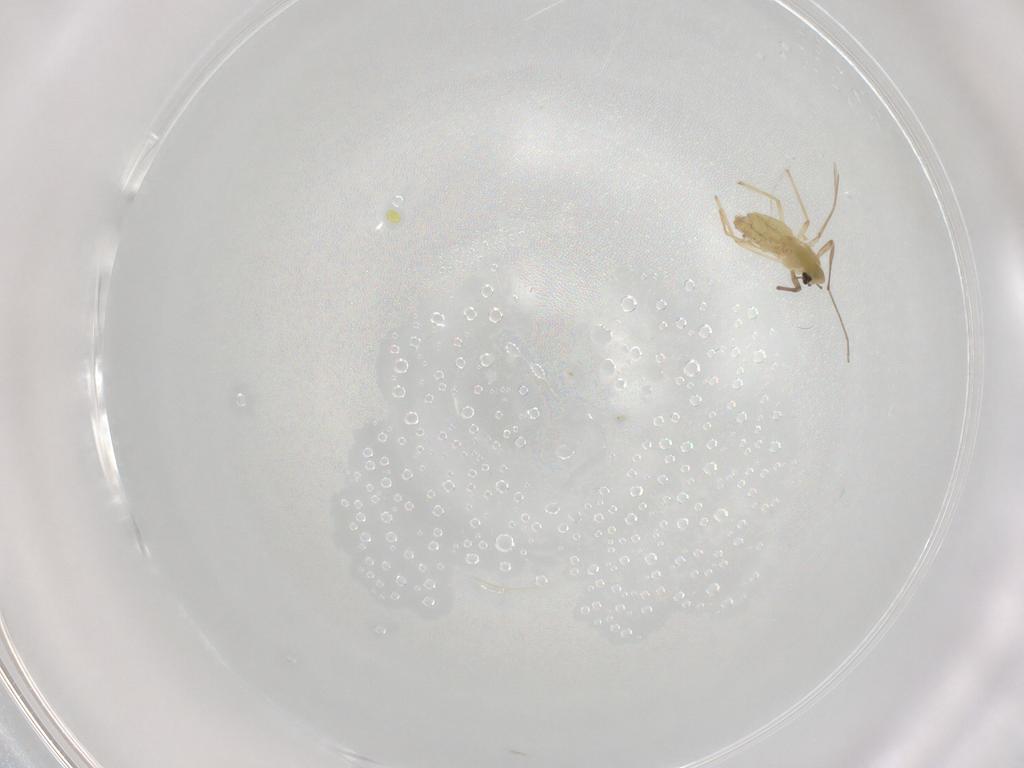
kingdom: Animalia
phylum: Arthropoda
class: Insecta
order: Diptera
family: Chironomidae
